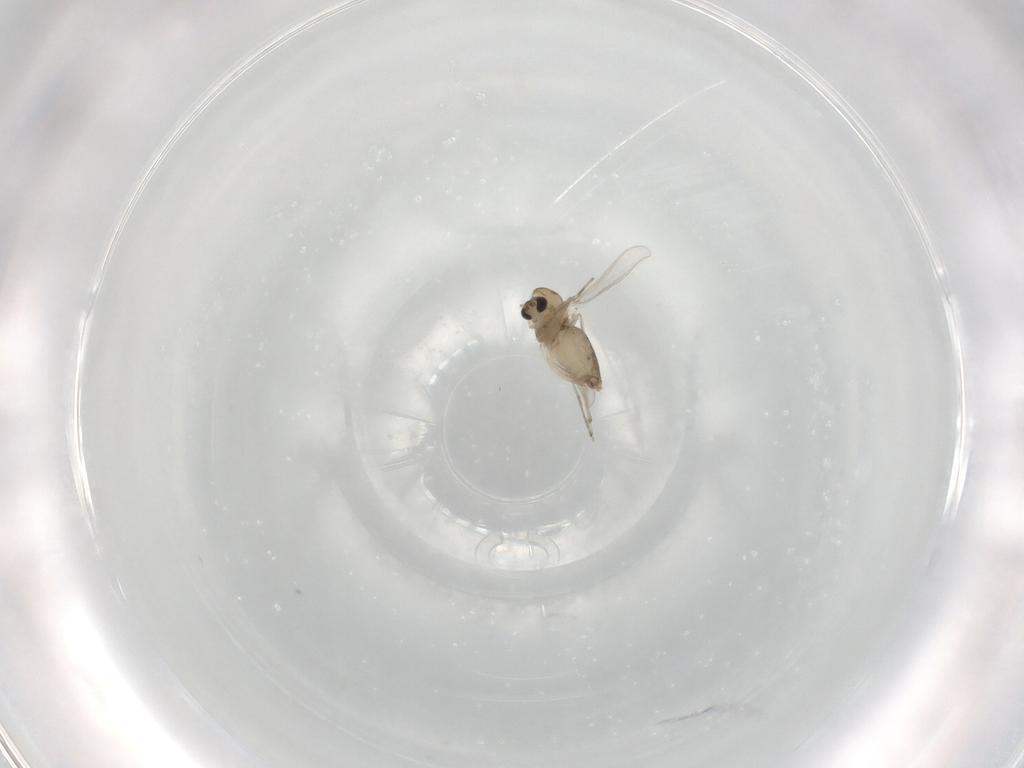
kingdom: Animalia
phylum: Arthropoda
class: Insecta
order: Diptera
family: Chironomidae
